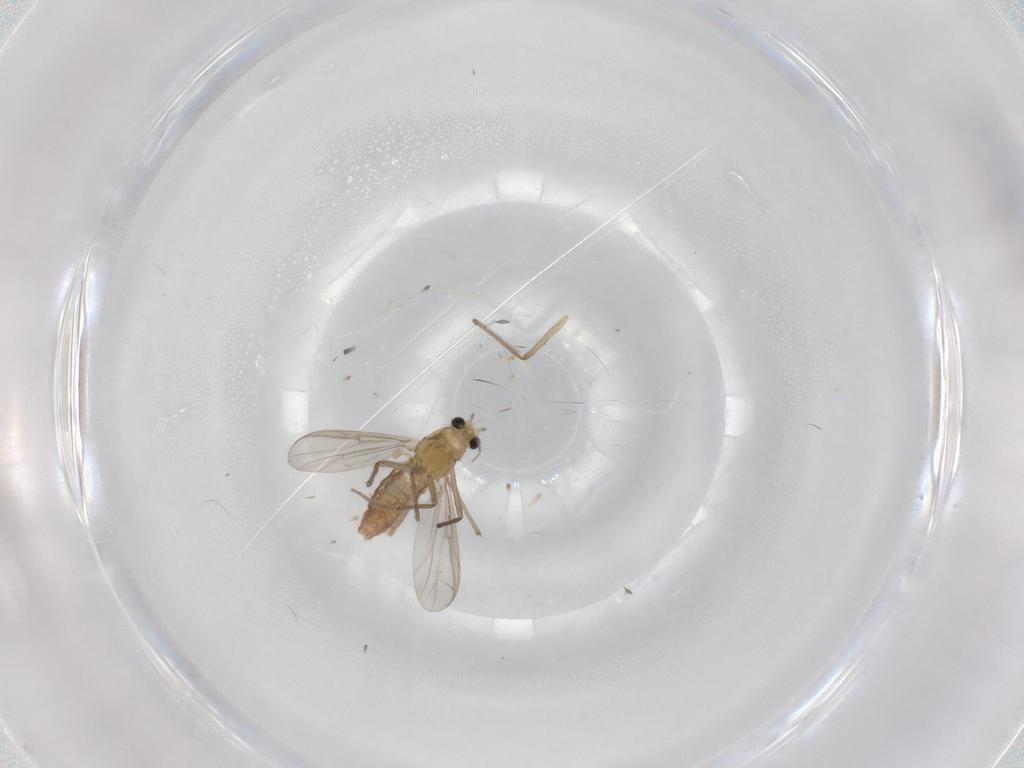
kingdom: Animalia
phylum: Arthropoda
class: Insecta
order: Diptera
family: Chironomidae
